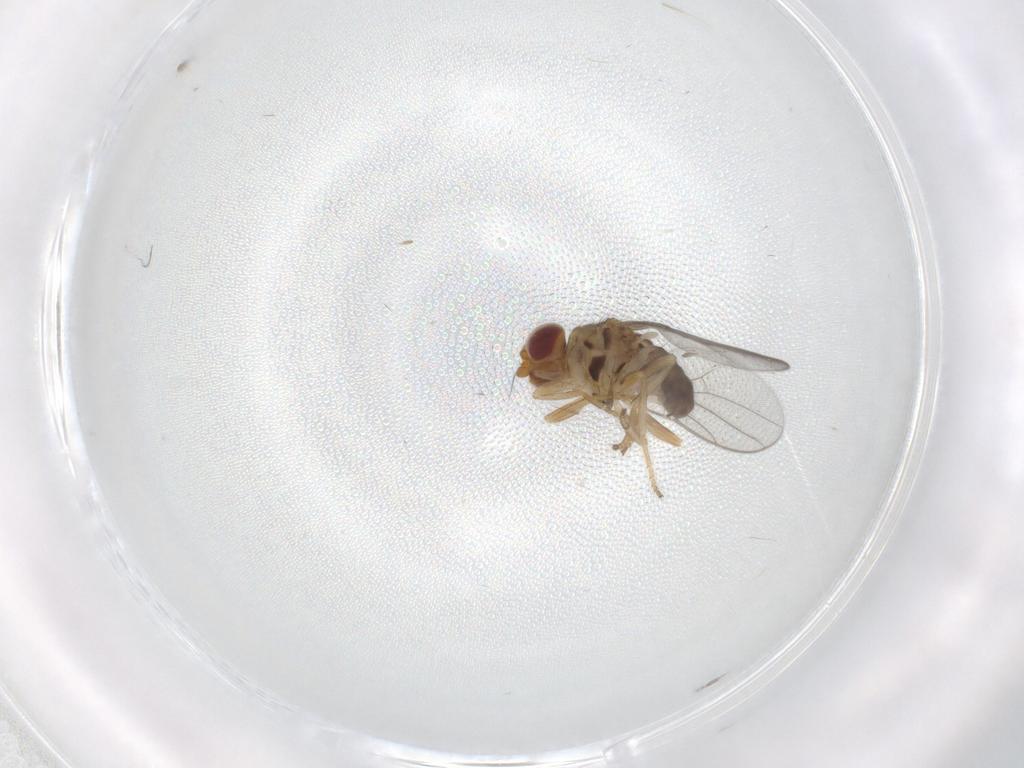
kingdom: Animalia
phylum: Arthropoda
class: Insecta
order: Diptera
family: Chloropidae
